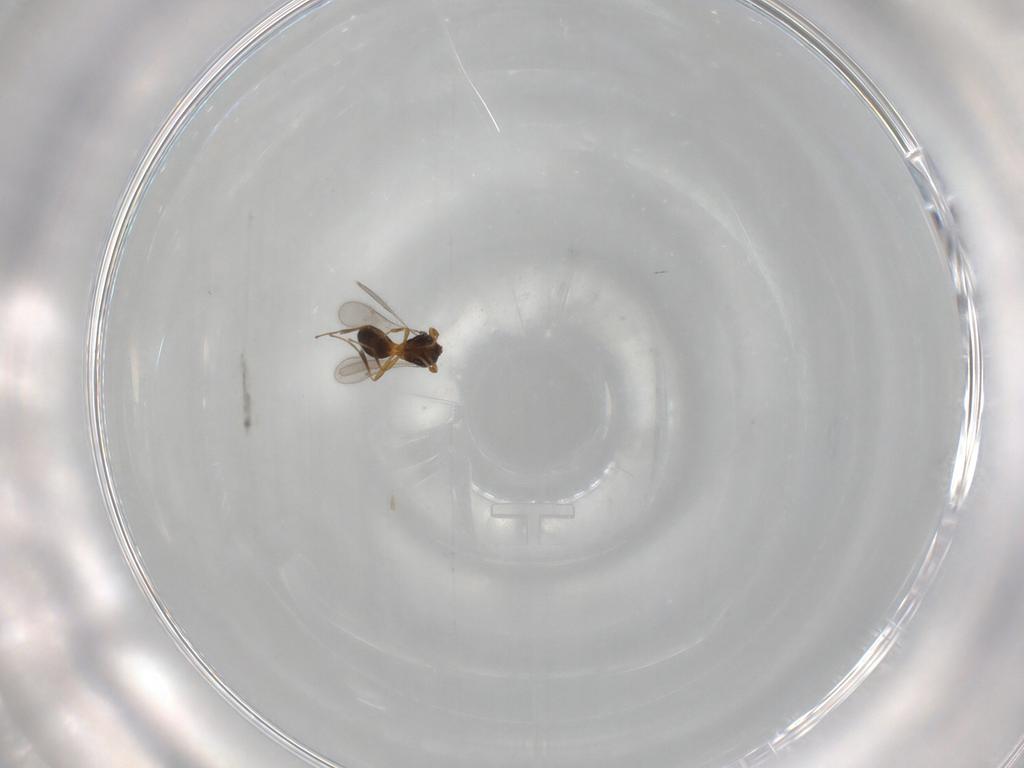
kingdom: Animalia
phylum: Arthropoda
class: Insecta
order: Hymenoptera
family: Scelionidae
